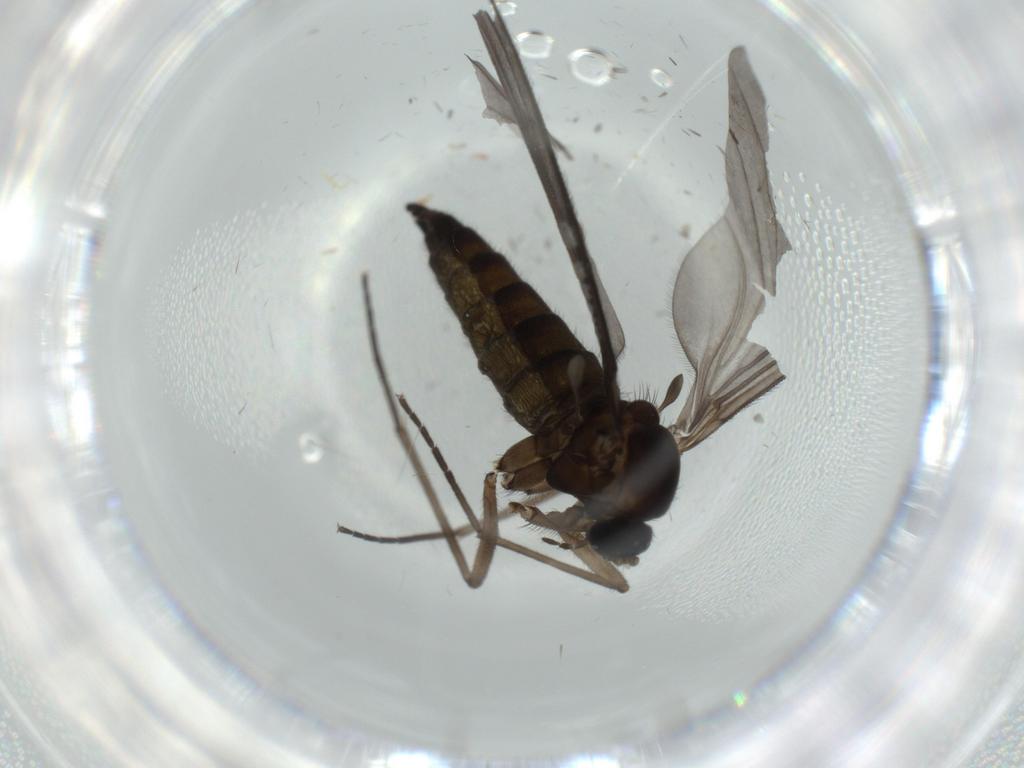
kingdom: Animalia
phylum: Arthropoda
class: Insecta
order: Diptera
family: Sciaridae
